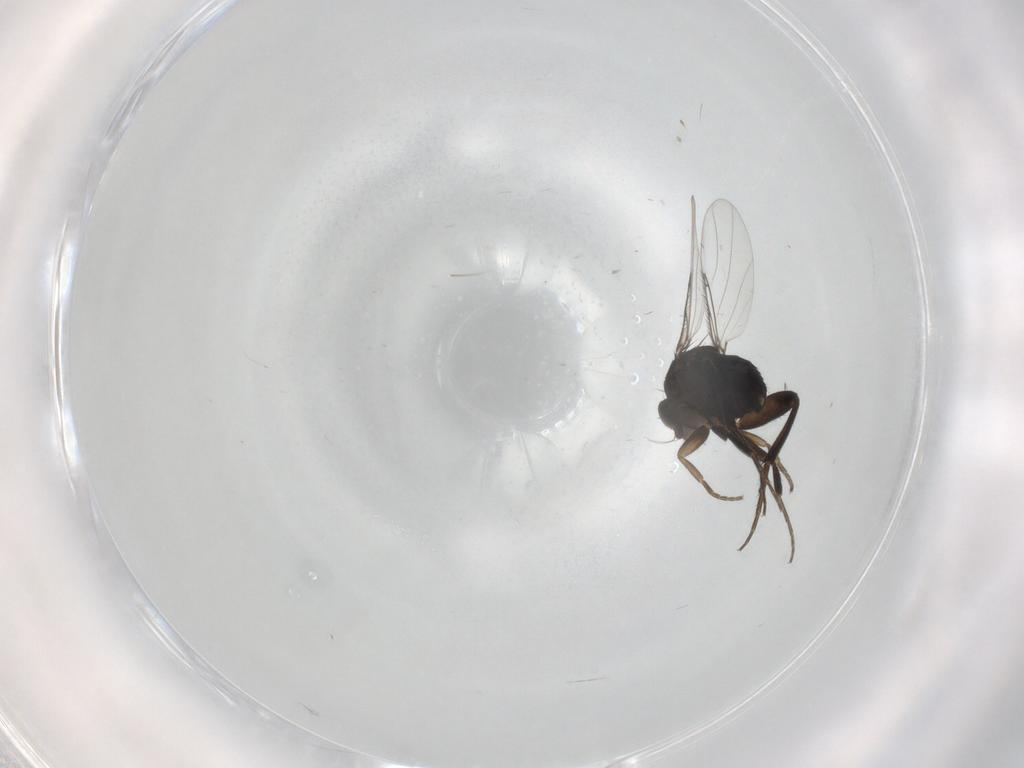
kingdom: Animalia
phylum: Arthropoda
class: Insecta
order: Diptera
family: Phoridae
